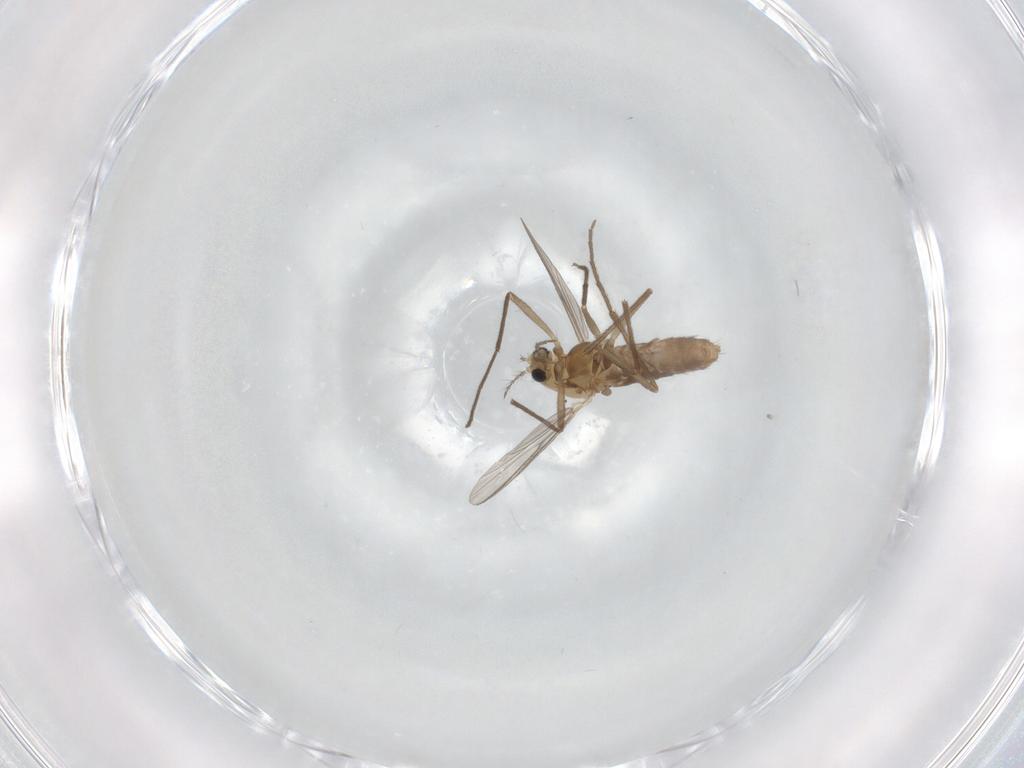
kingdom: Animalia
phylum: Arthropoda
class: Insecta
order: Diptera
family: Chironomidae
